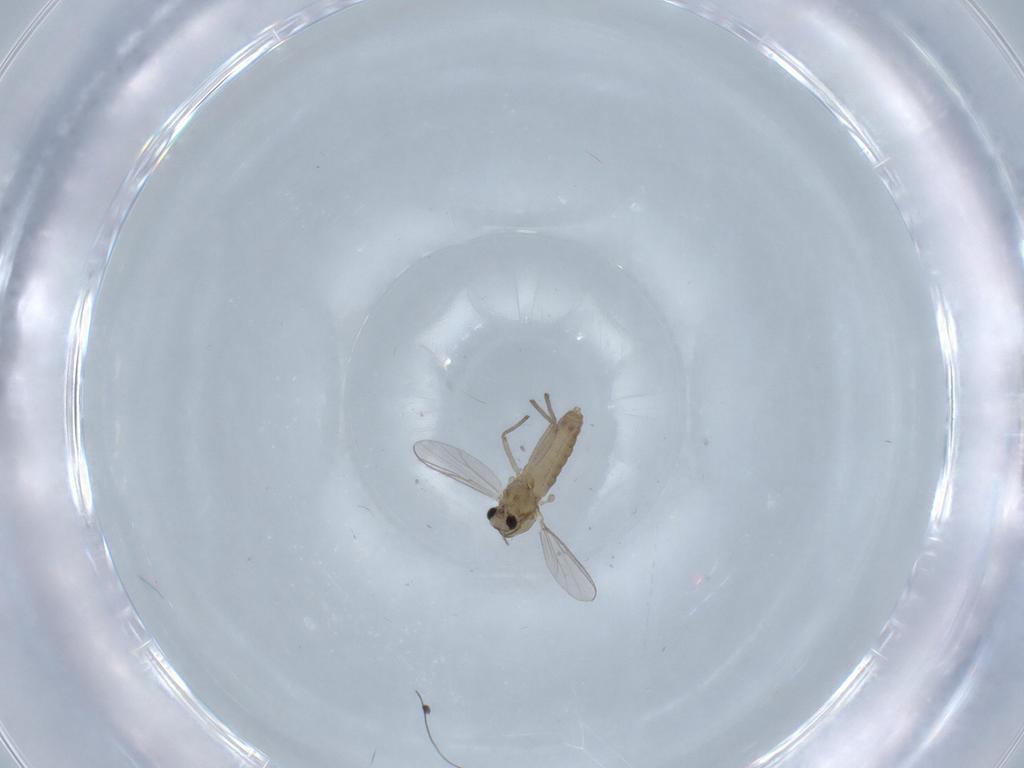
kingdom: Animalia
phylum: Arthropoda
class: Insecta
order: Diptera
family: Chironomidae
